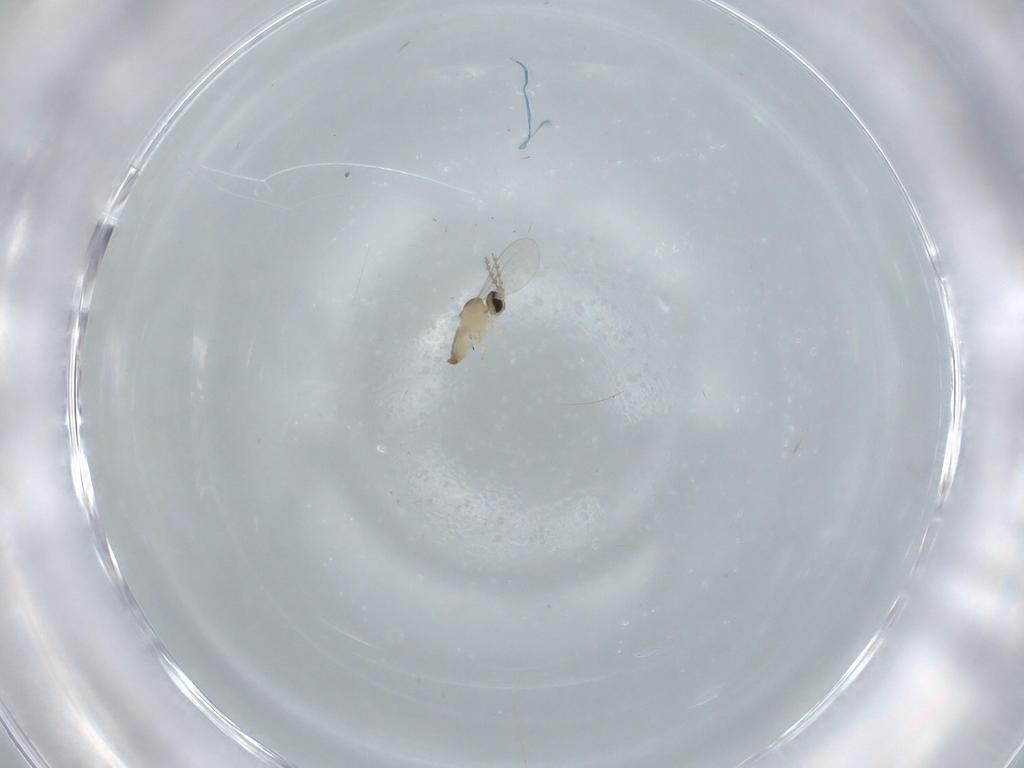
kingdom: Animalia
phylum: Arthropoda
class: Insecta
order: Diptera
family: Cecidomyiidae
